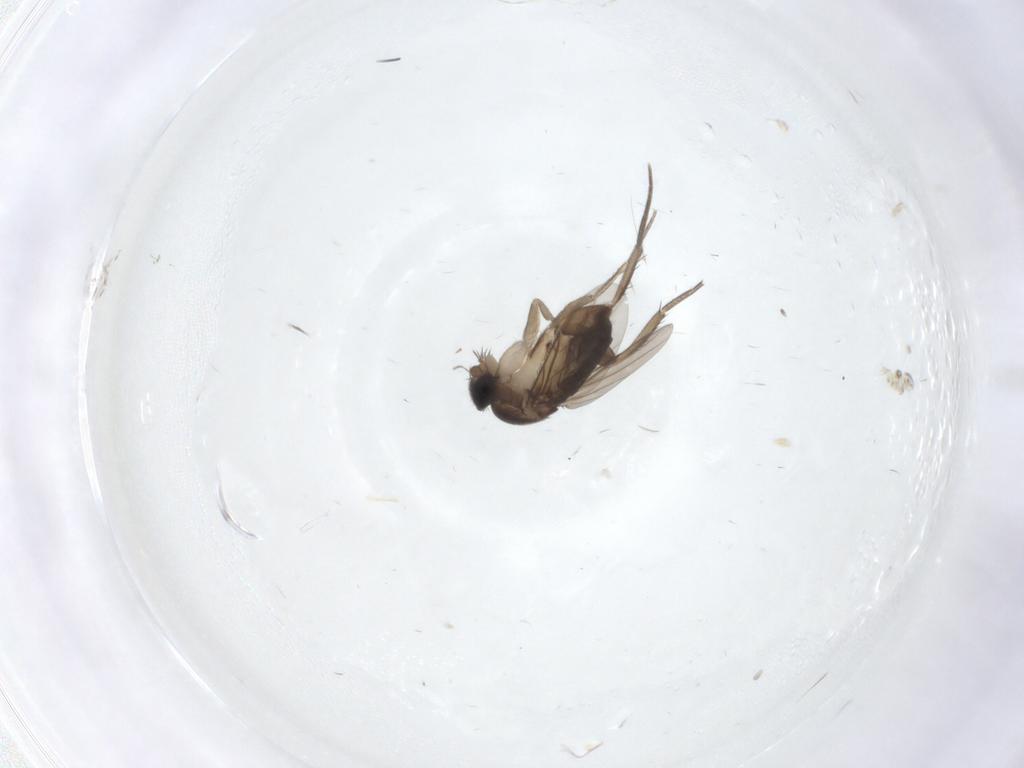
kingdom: Animalia
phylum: Arthropoda
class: Insecta
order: Diptera
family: Phoridae
